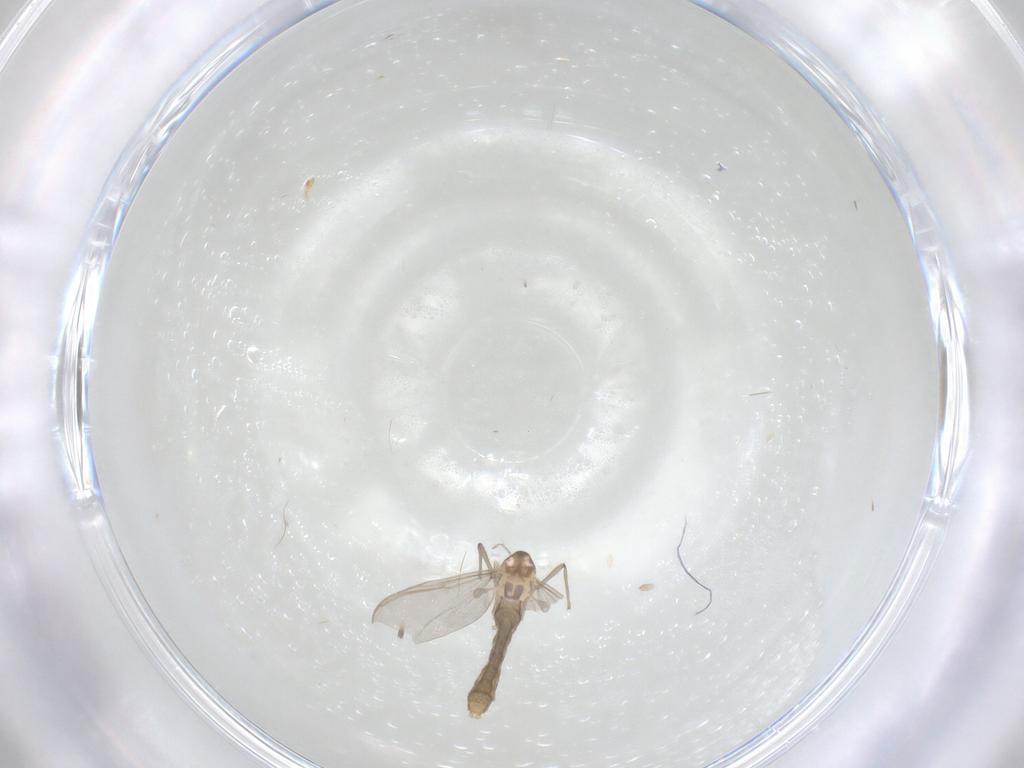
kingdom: Animalia
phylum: Arthropoda
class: Insecta
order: Diptera
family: Chironomidae
